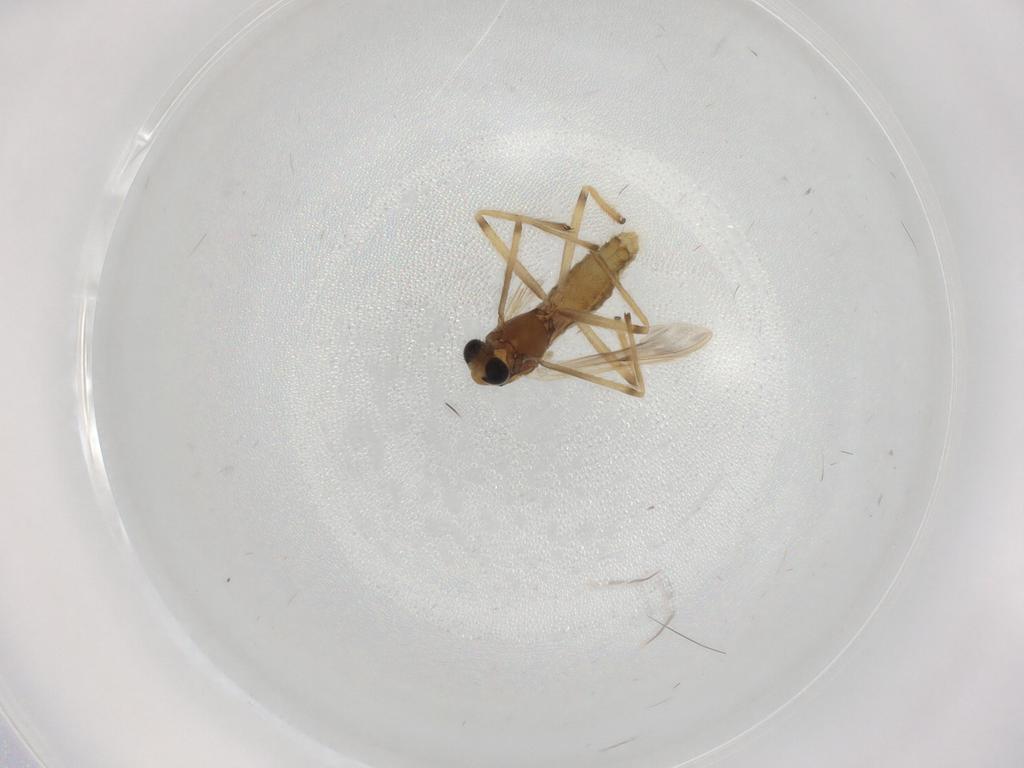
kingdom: Animalia
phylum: Arthropoda
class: Insecta
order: Diptera
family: Chironomidae
